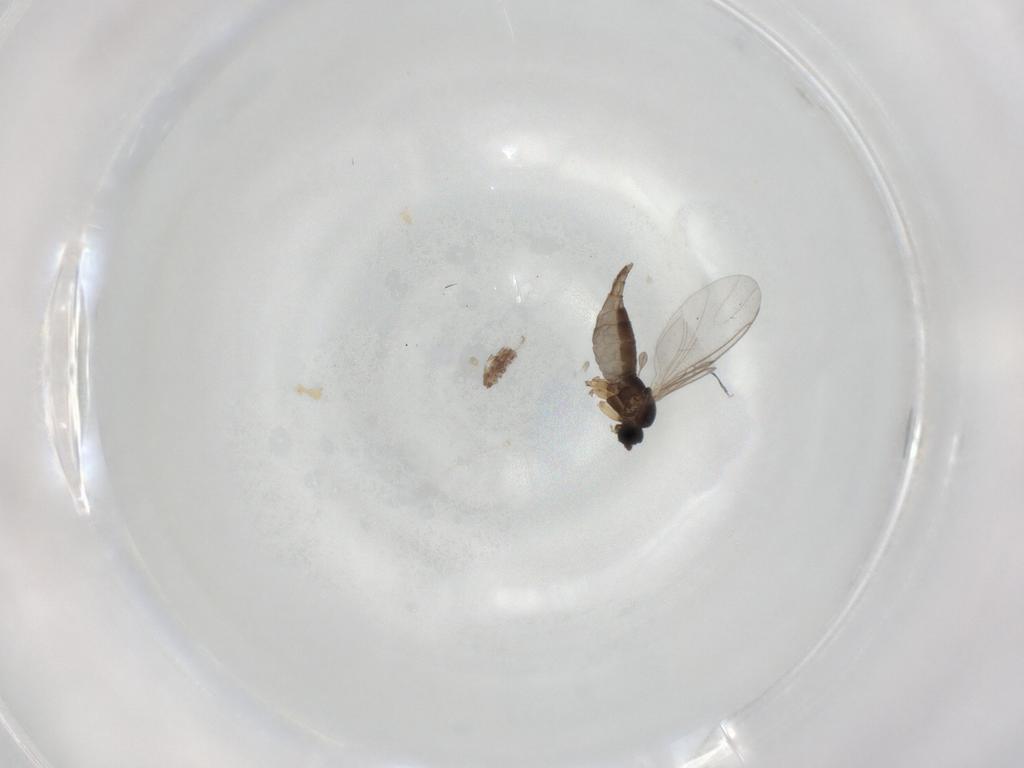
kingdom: Animalia
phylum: Arthropoda
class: Insecta
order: Diptera
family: Sciaridae
